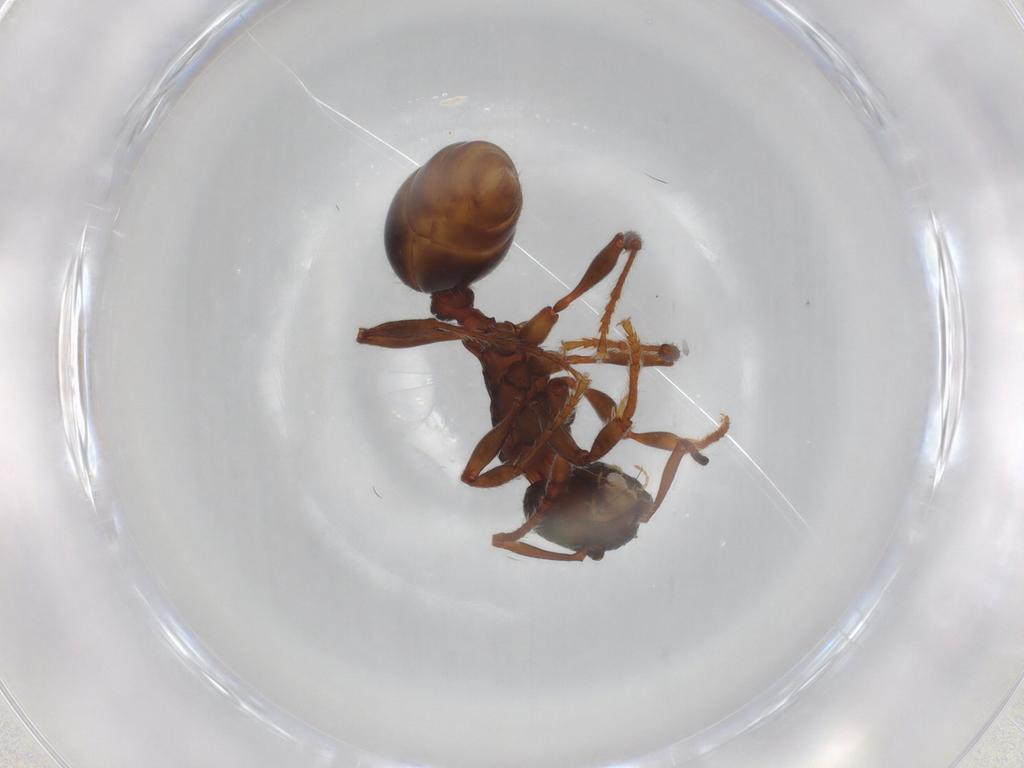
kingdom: Animalia
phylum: Arthropoda
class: Insecta
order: Hymenoptera
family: Formicidae
